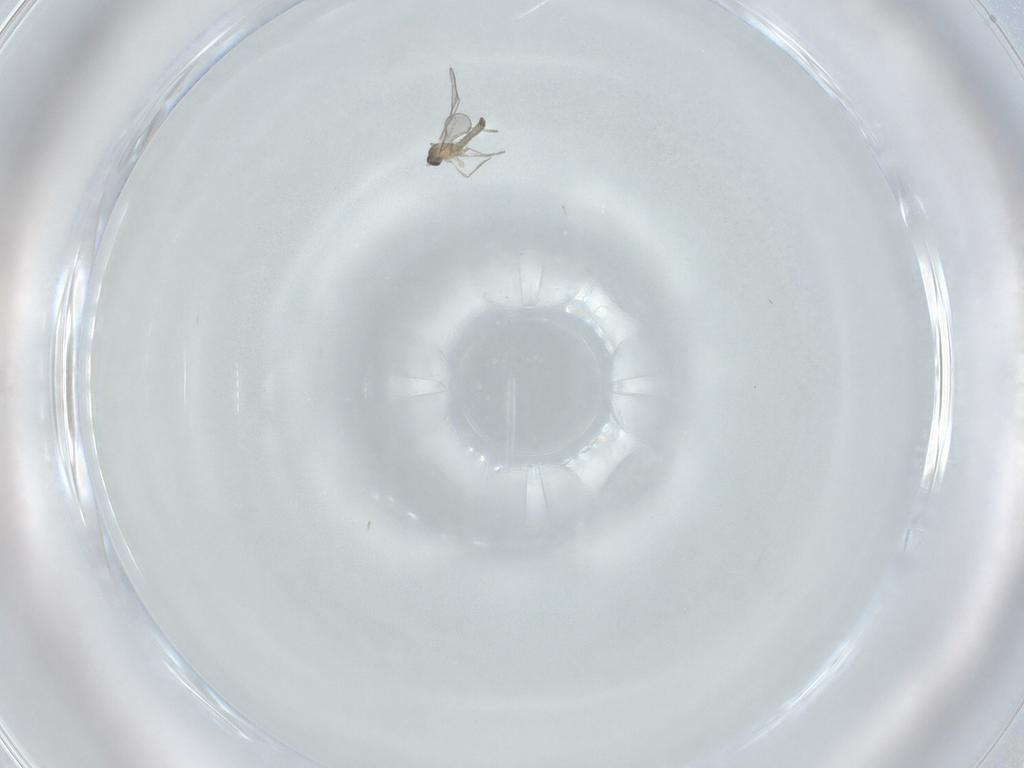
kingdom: Animalia
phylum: Arthropoda
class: Insecta
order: Diptera
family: Cecidomyiidae
